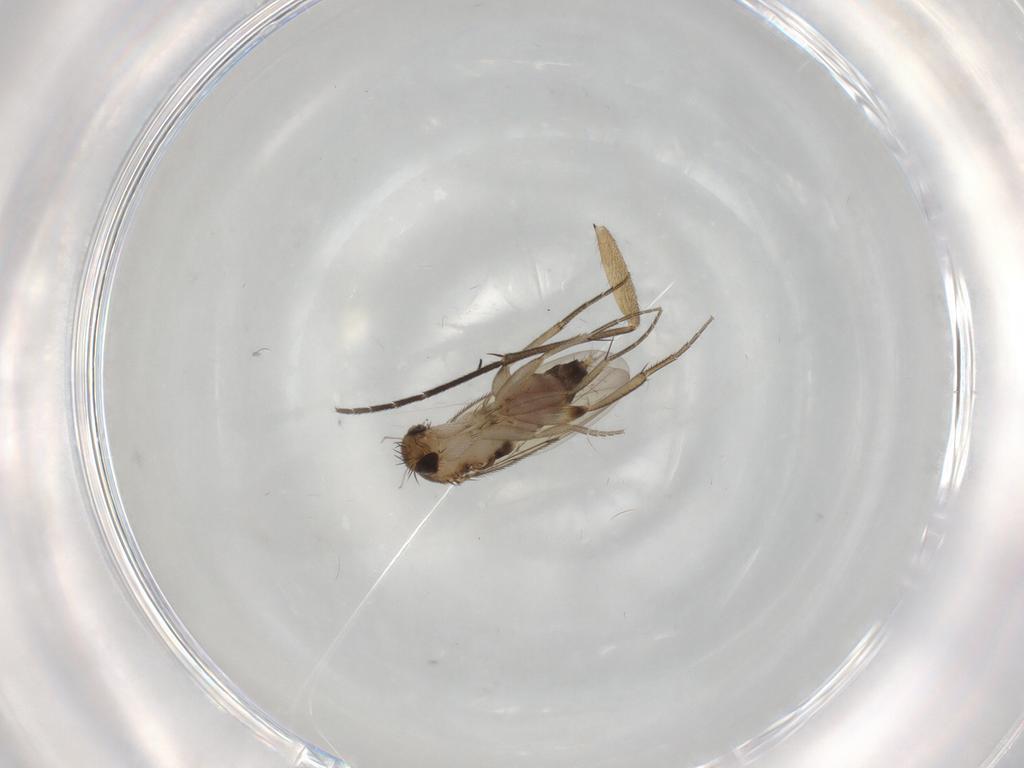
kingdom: Animalia
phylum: Arthropoda
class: Insecta
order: Diptera
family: Sciaridae
